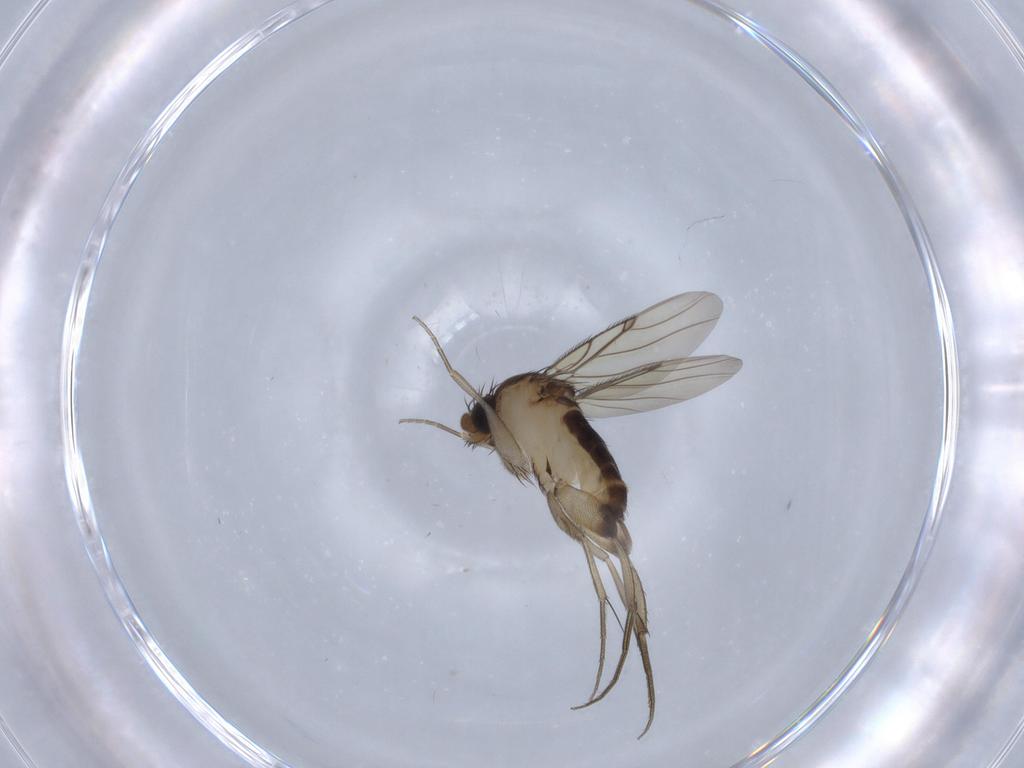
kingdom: Animalia
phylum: Arthropoda
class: Insecta
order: Diptera
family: Phoridae
